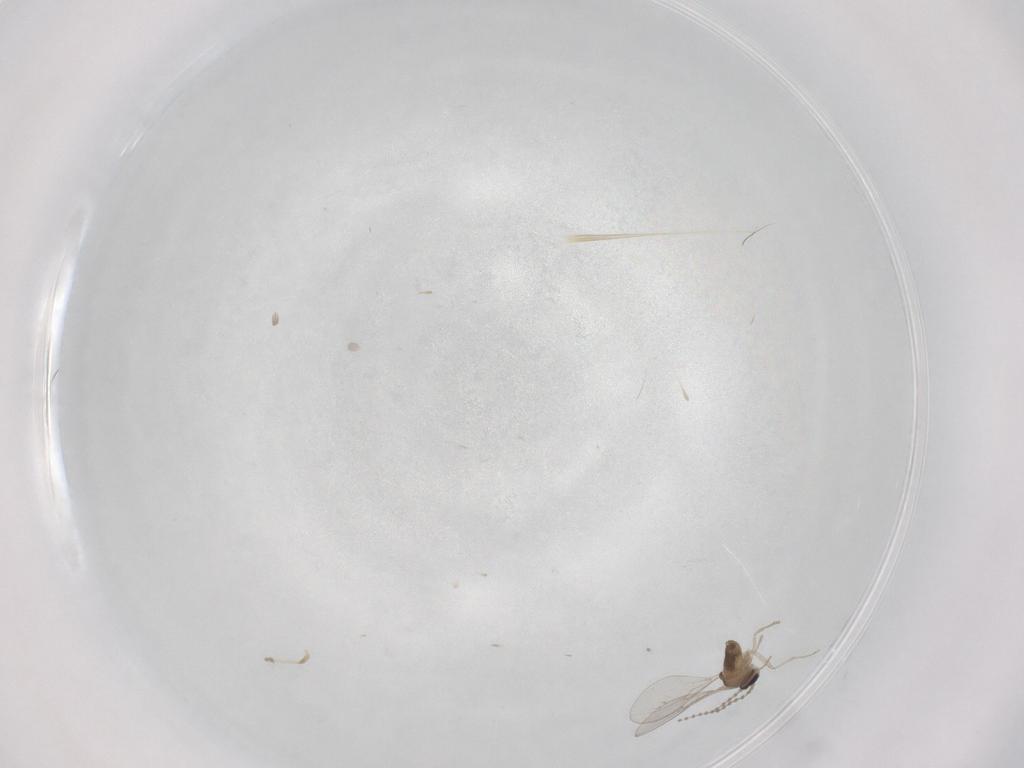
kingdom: Animalia
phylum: Arthropoda
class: Insecta
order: Diptera
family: Cecidomyiidae
